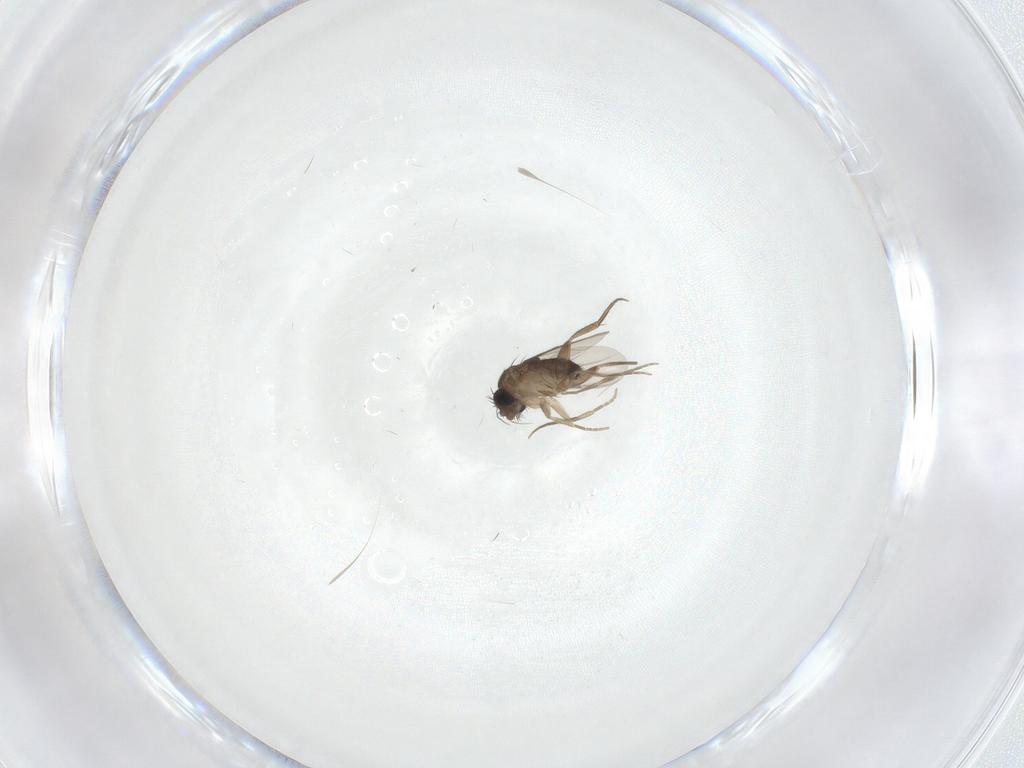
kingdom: Animalia
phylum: Arthropoda
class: Insecta
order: Diptera
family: Phoridae
